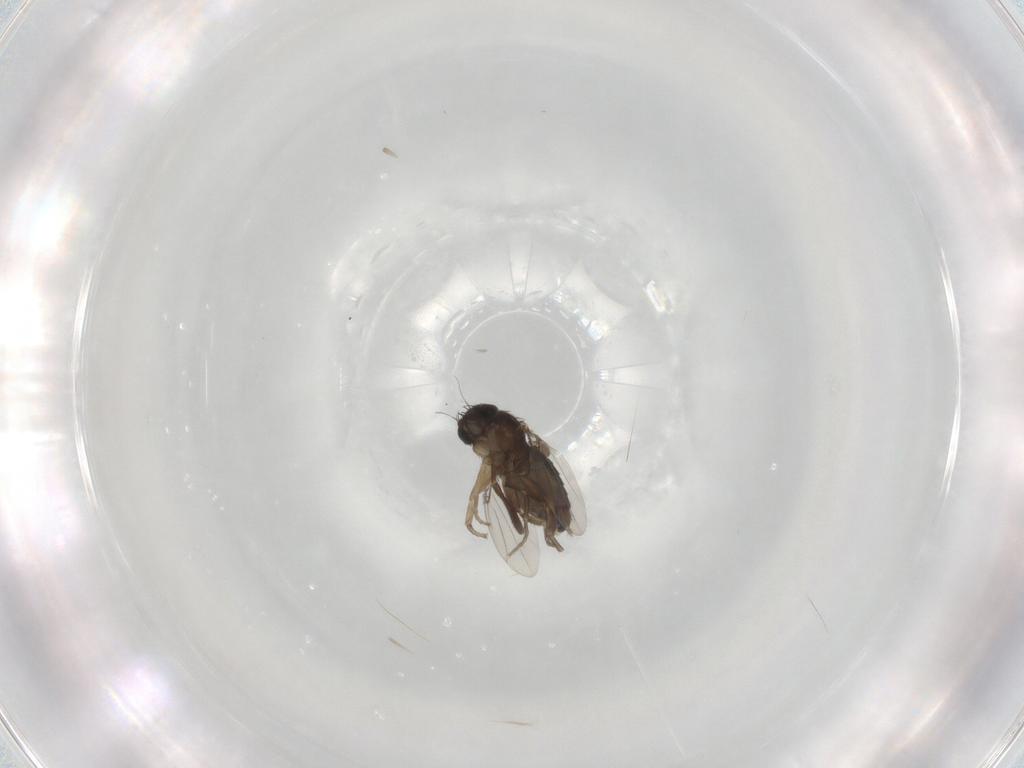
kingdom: Animalia
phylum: Arthropoda
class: Insecta
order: Diptera
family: Phoridae
